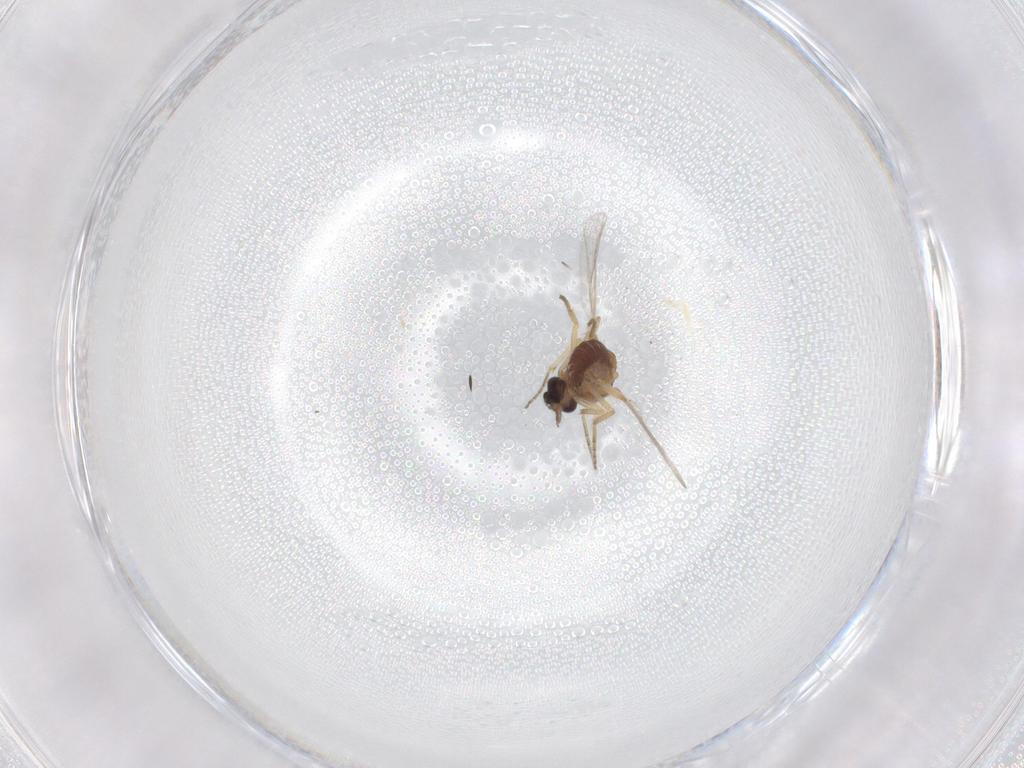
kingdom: Animalia
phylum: Arthropoda
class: Insecta
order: Diptera
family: Ceratopogonidae
